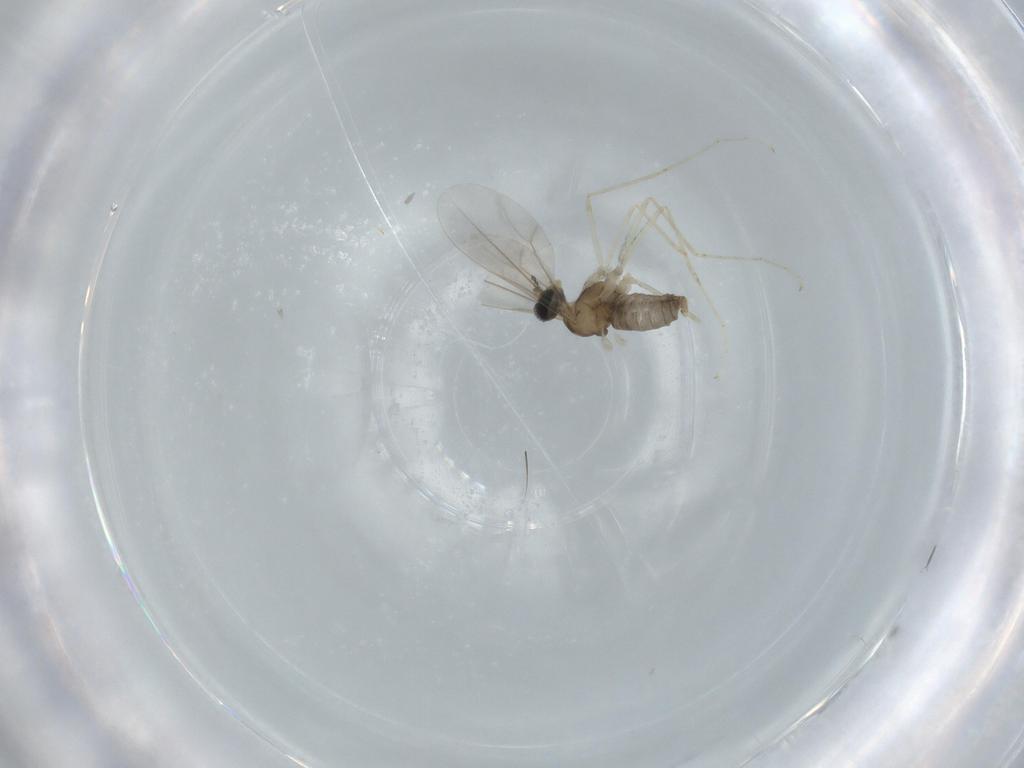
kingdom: Animalia
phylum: Arthropoda
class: Insecta
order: Diptera
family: Cecidomyiidae
